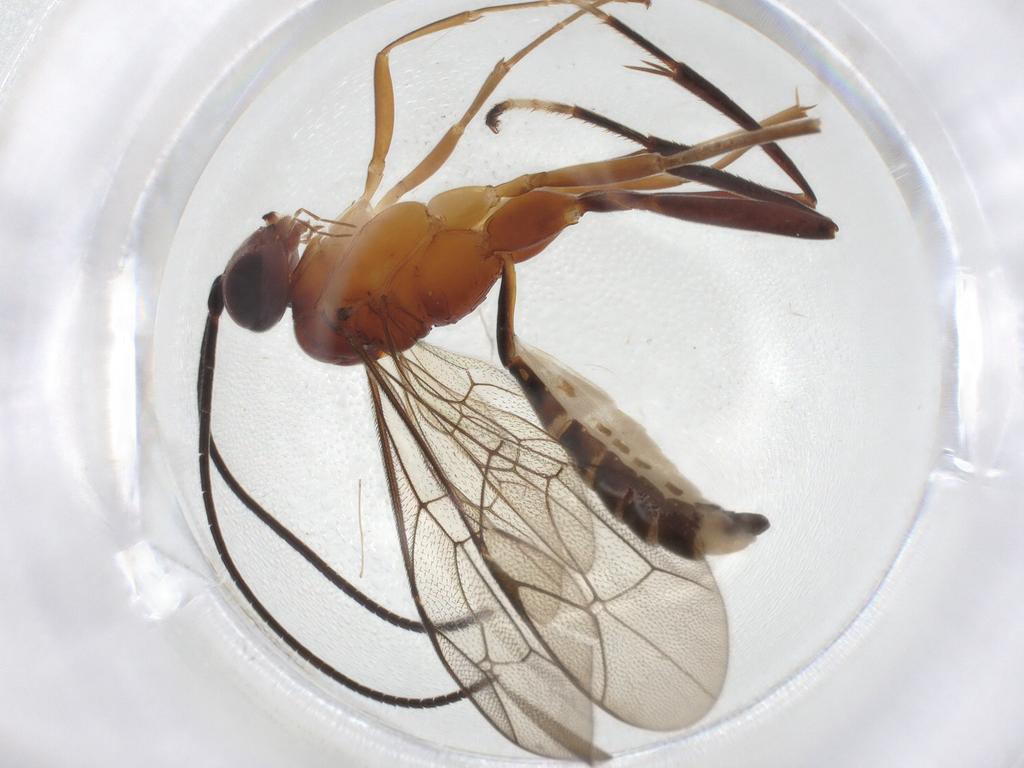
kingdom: Animalia
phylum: Arthropoda
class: Insecta
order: Hymenoptera
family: Ichneumonidae
